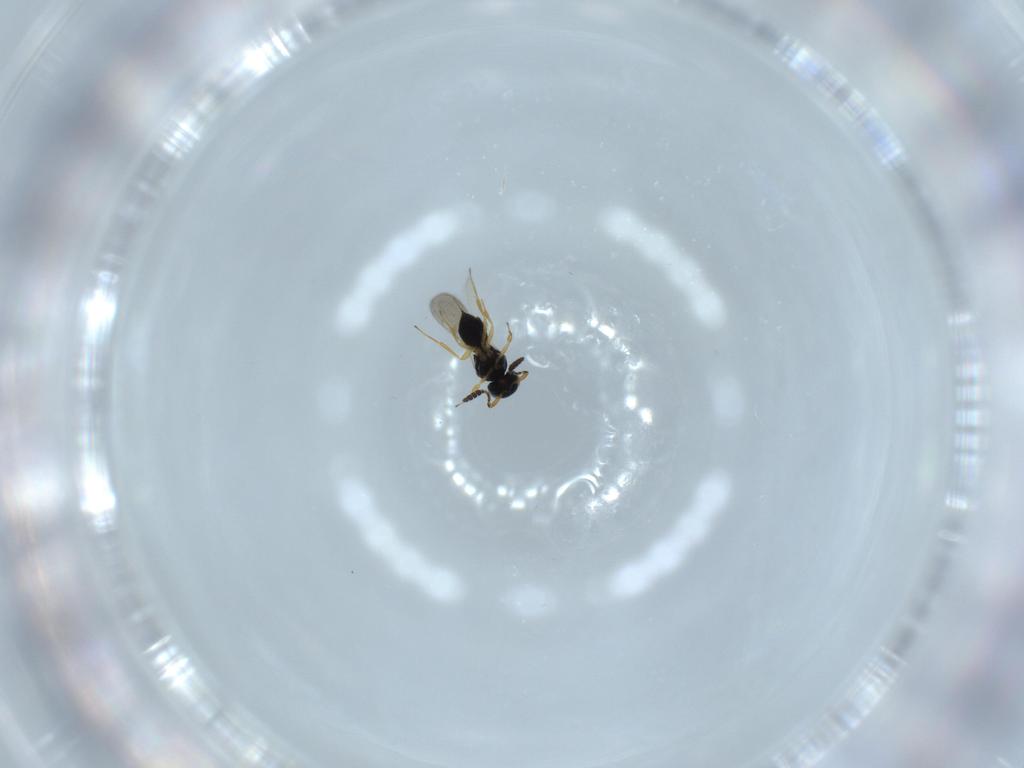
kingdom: Animalia
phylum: Arthropoda
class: Insecta
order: Hymenoptera
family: Scelionidae
